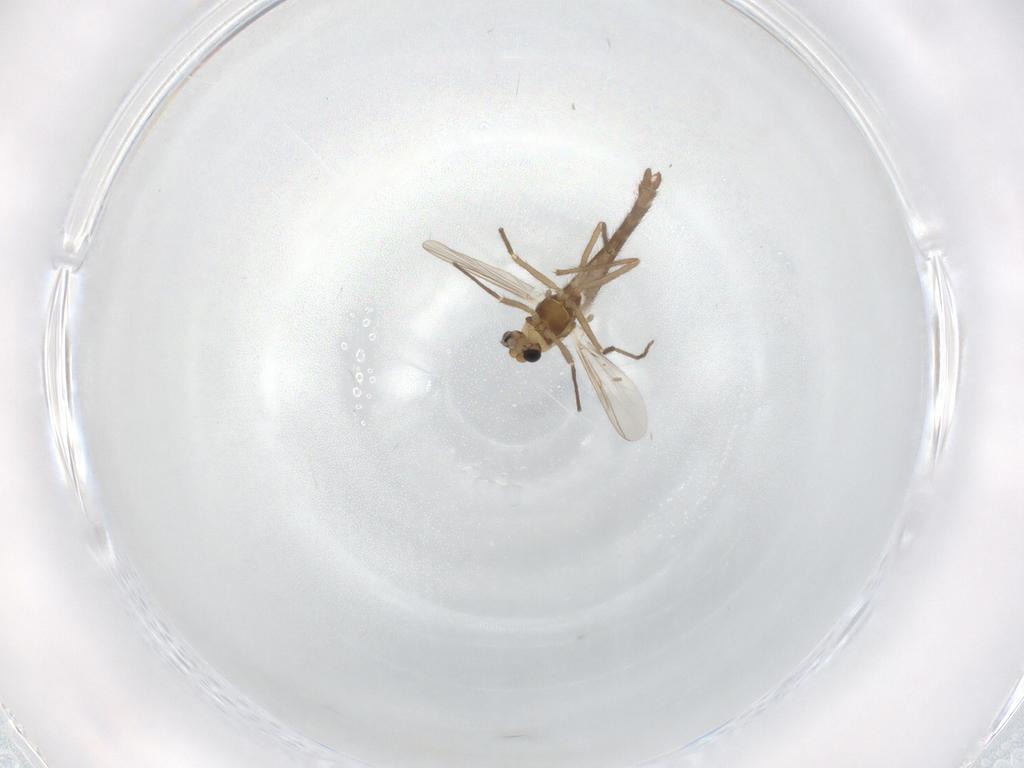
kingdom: Animalia
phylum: Arthropoda
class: Insecta
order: Diptera
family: Chironomidae
